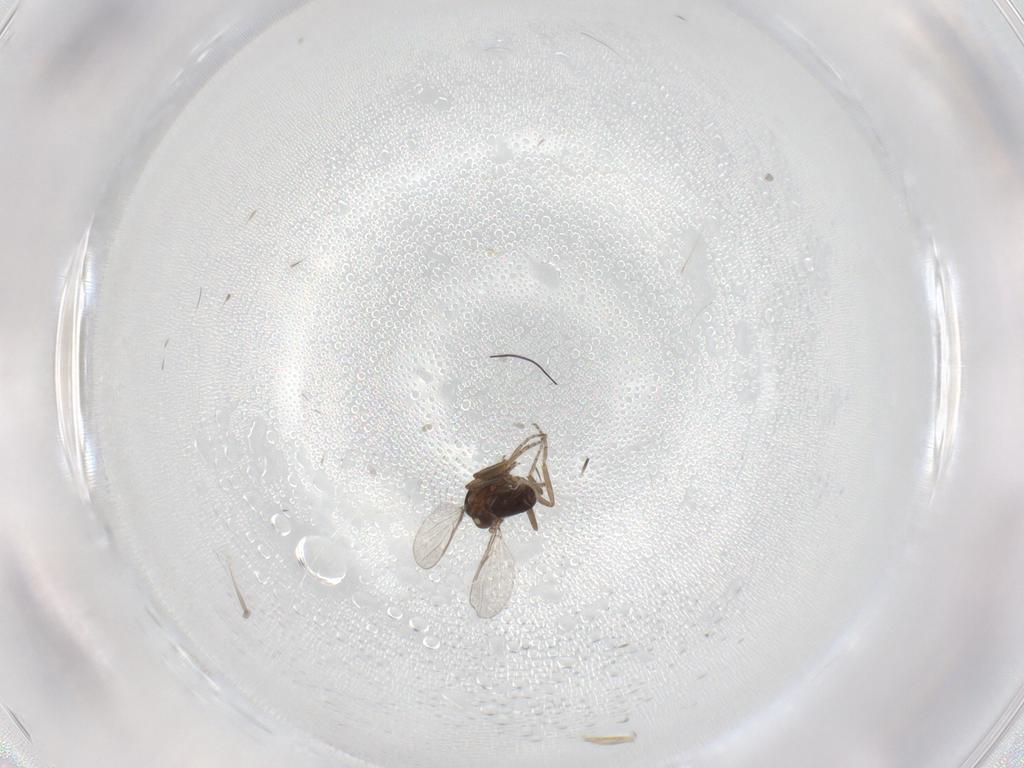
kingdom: Animalia
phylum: Arthropoda
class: Insecta
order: Diptera
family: Ceratopogonidae
